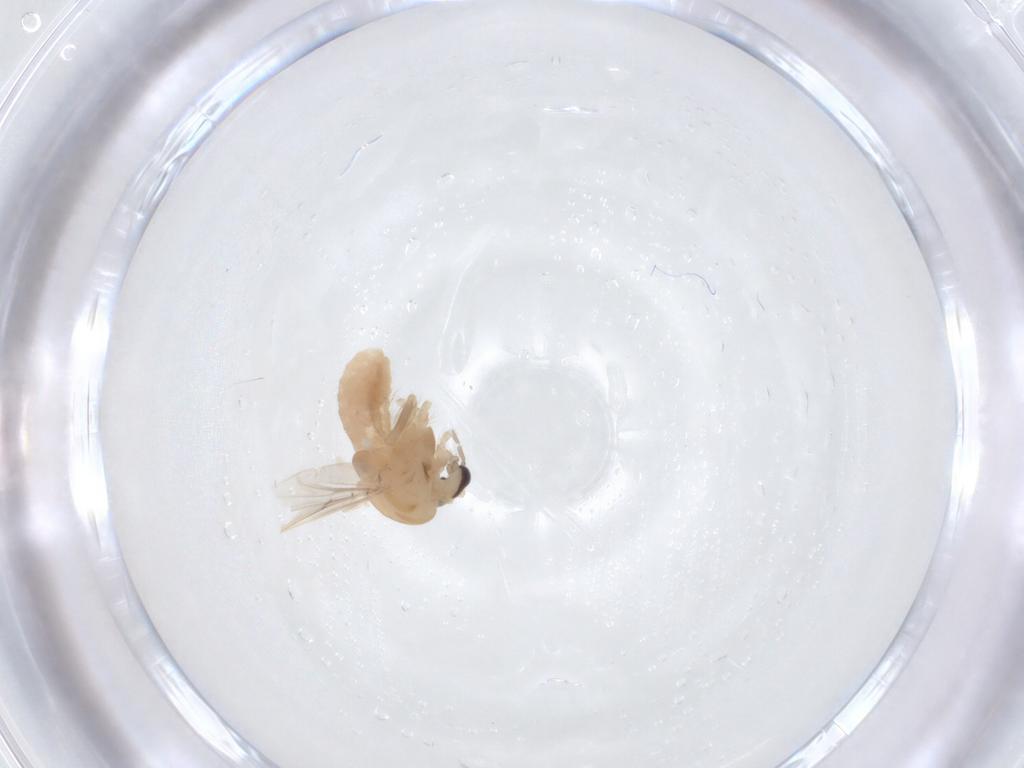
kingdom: Animalia
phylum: Arthropoda
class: Insecta
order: Diptera
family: Chironomidae
